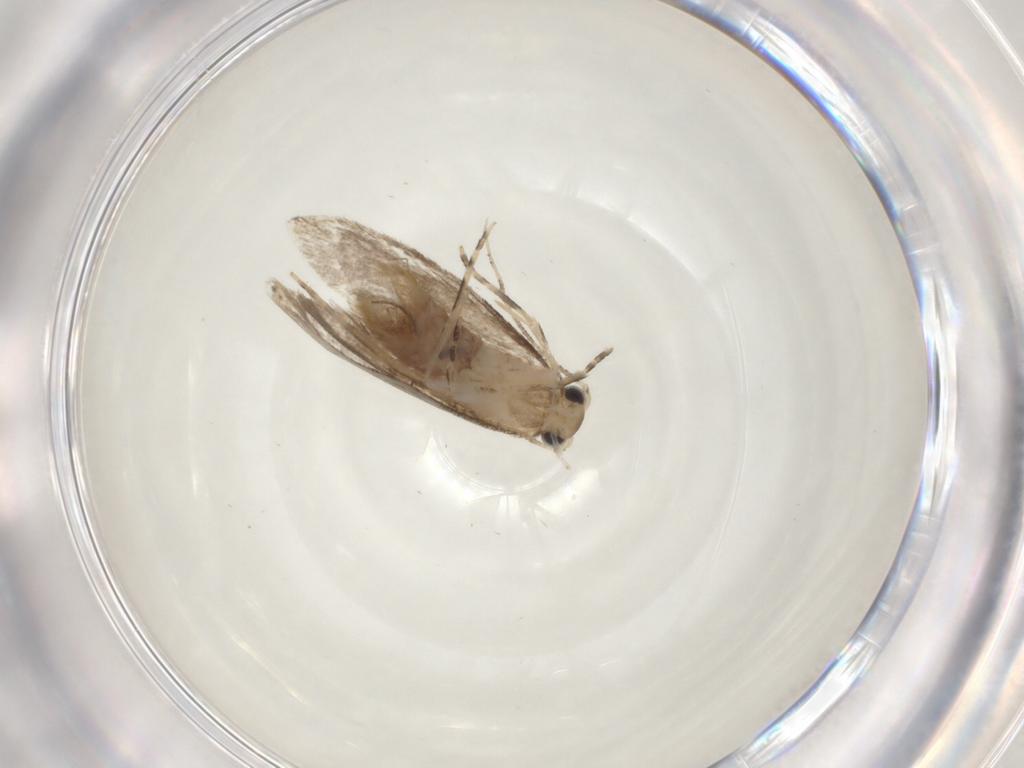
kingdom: Animalia
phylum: Arthropoda
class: Insecta
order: Lepidoptera
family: Tineidae
